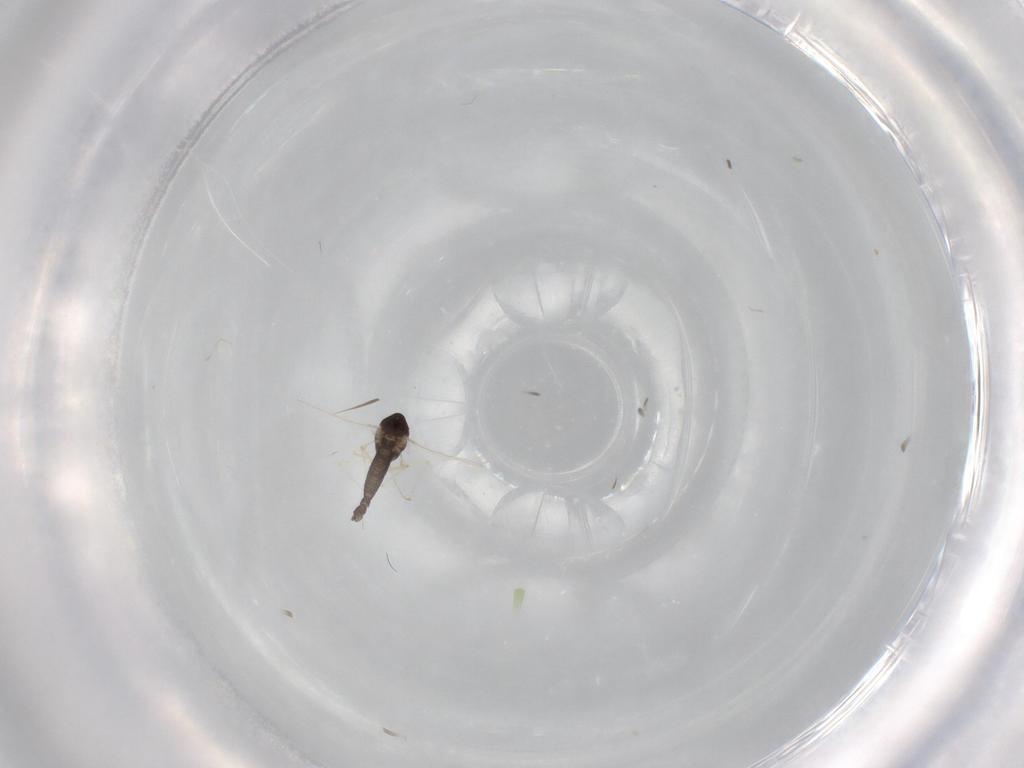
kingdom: Animalia
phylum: Arthropoda
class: Insecta
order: Diptera
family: Chironomidae
